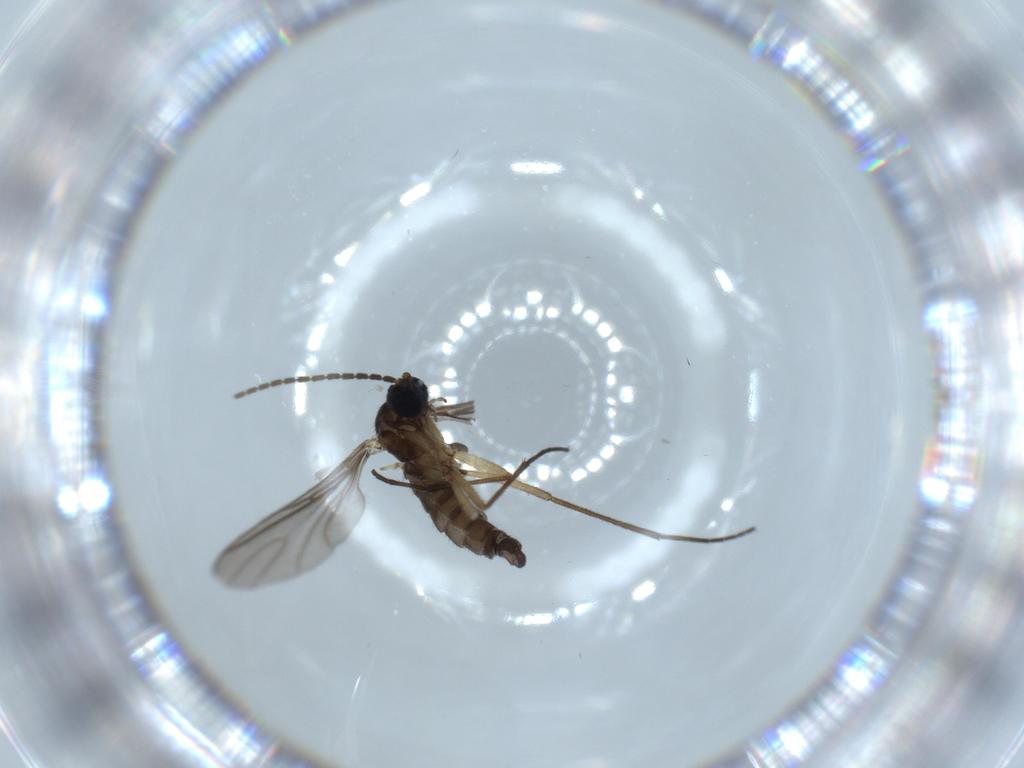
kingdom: Animalia
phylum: Arthropoda
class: Insecta
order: Diptera
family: Sciaridae
